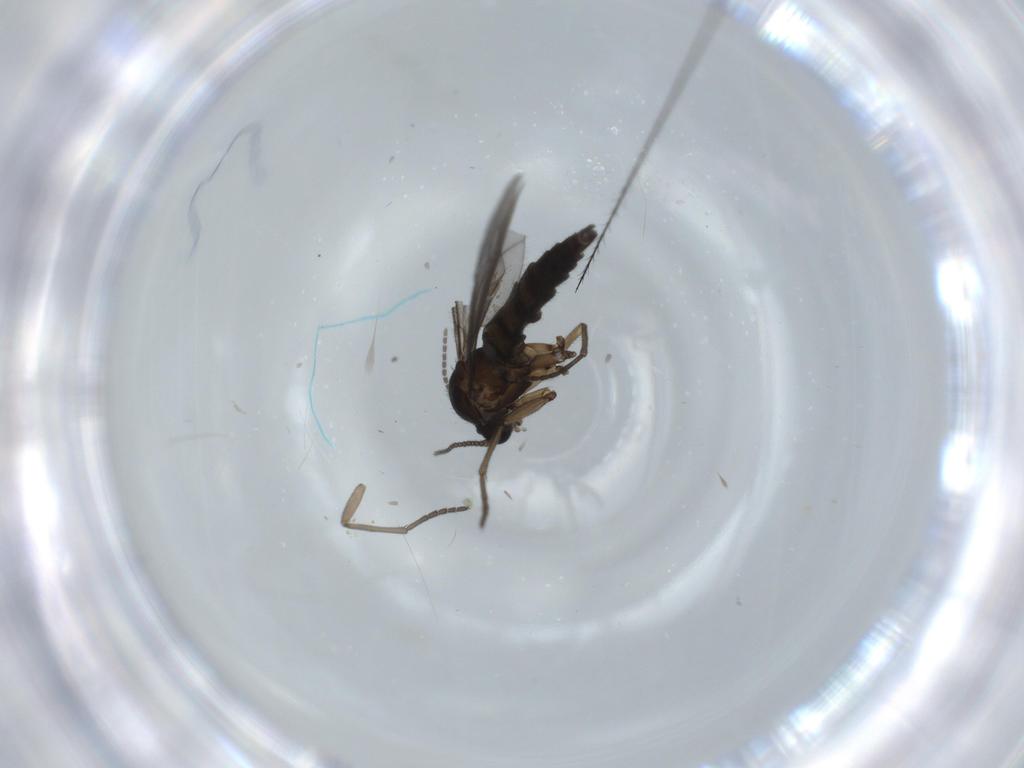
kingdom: Animalia
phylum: Arthropoda
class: Insecta
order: Diptera
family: Sciaridae
